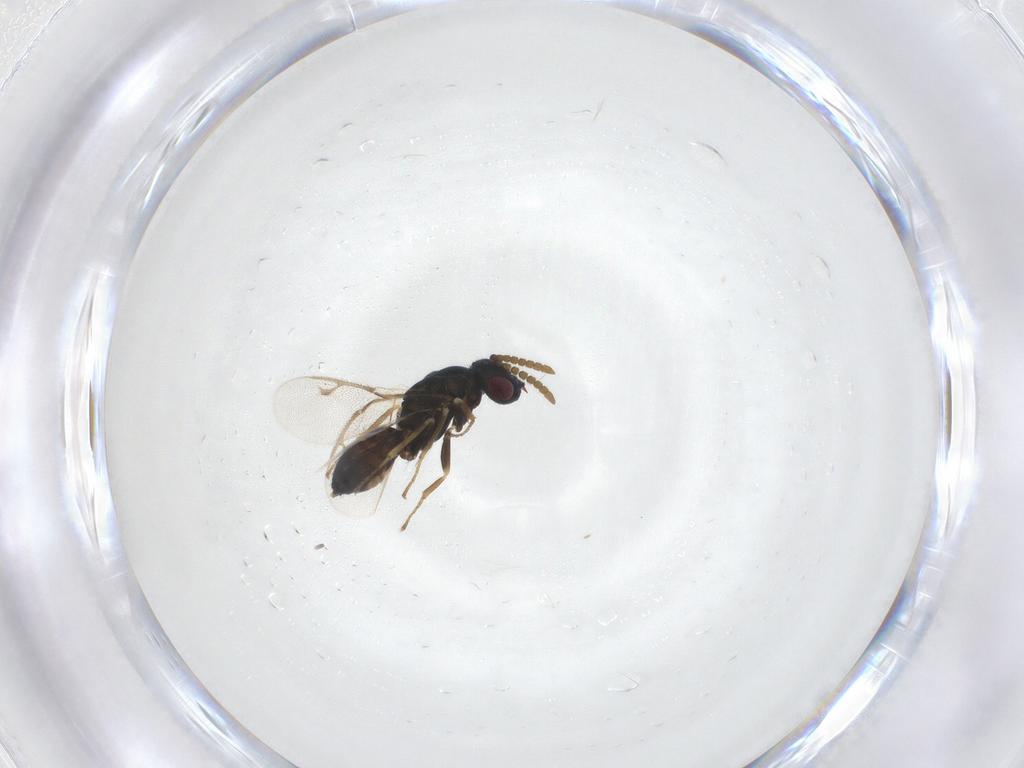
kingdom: Animalia
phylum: Arthropoda
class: Insecta
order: Hymenoptera
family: Pirenidae
